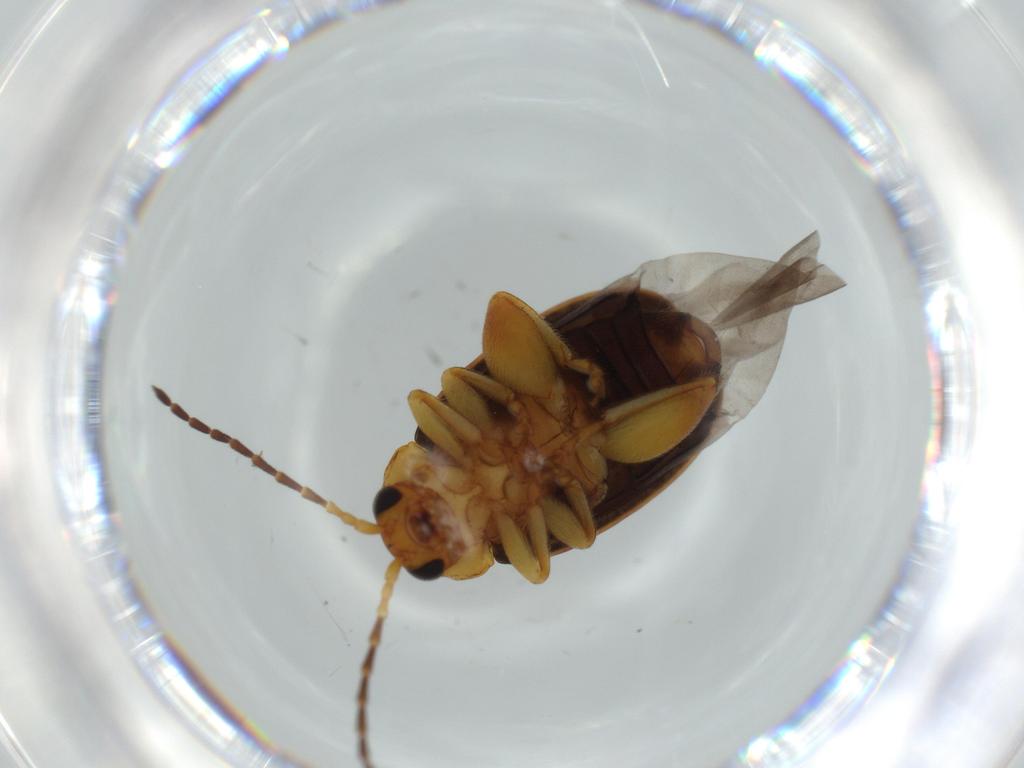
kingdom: Animalia
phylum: Arthropoda
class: Insecta
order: Coleoptera
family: Chrysomelidae
